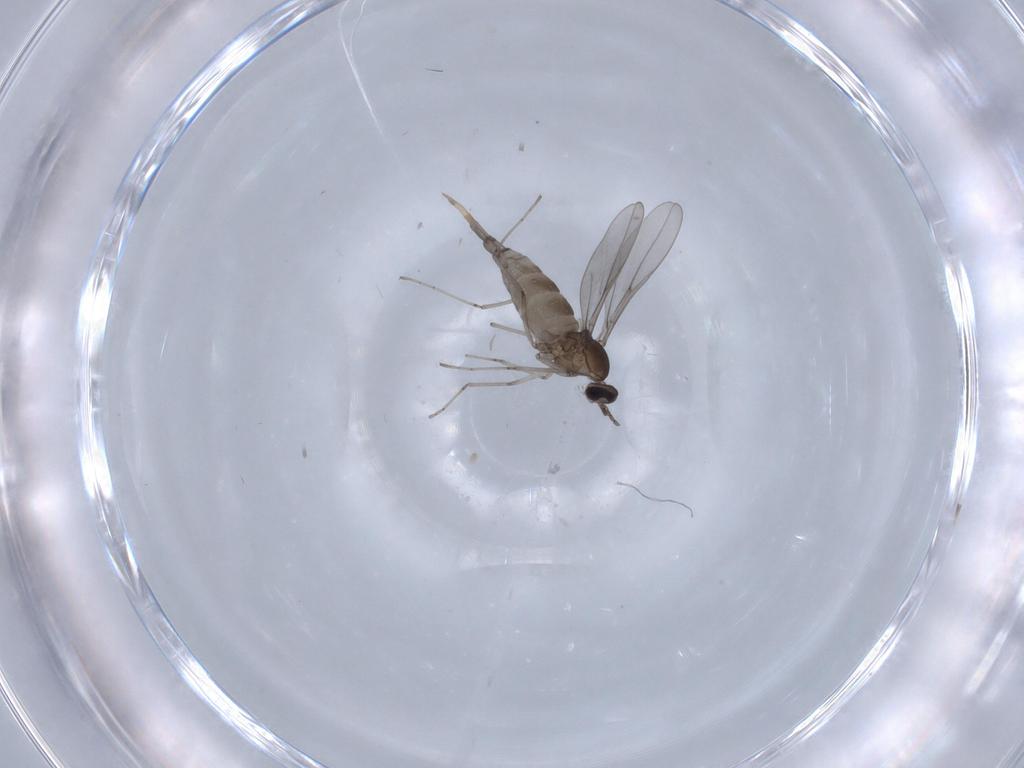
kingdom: Animalia
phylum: Arthropoda
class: Insecta
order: Diptera
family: Cecidomyiidae
